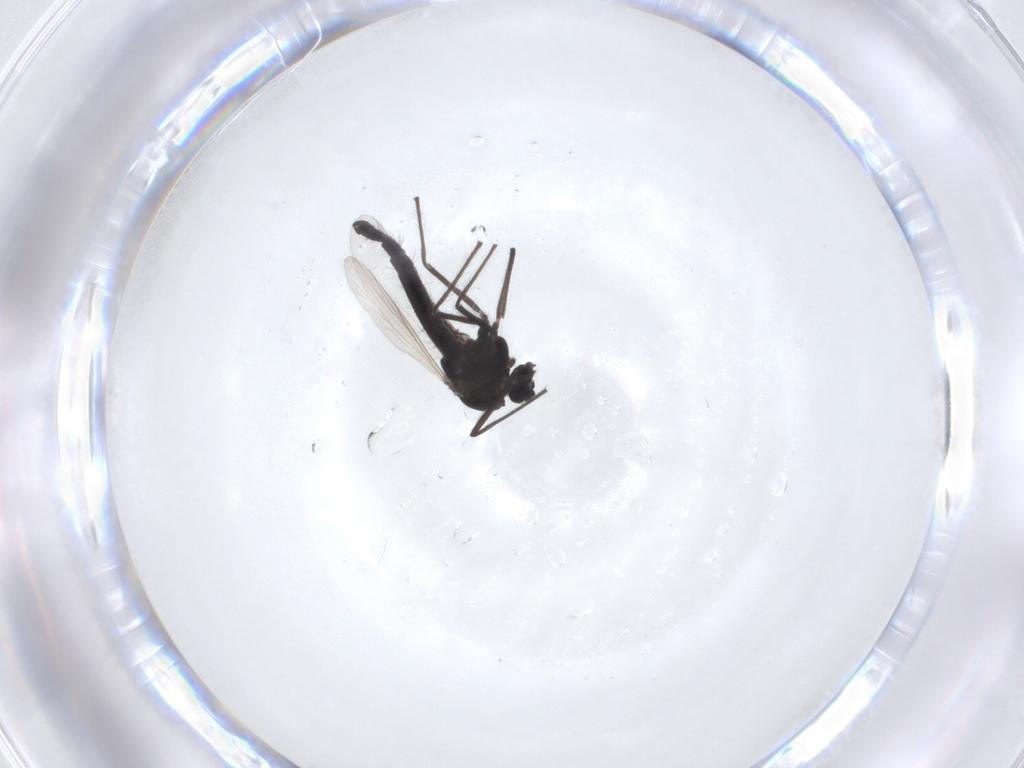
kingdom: Animalia
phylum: Arthropoda
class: Insecta
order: Diptera
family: Chironomidae
